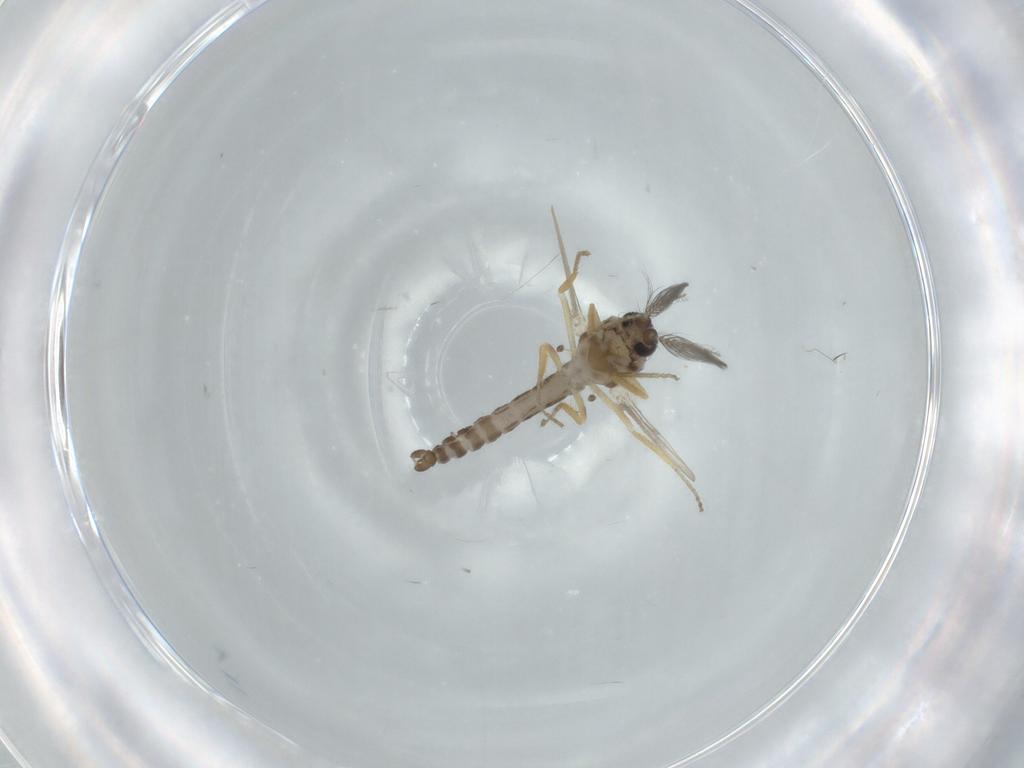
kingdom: Animalia
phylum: Arthropoda
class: Insecta
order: Diptera
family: Ceratopogonidae
